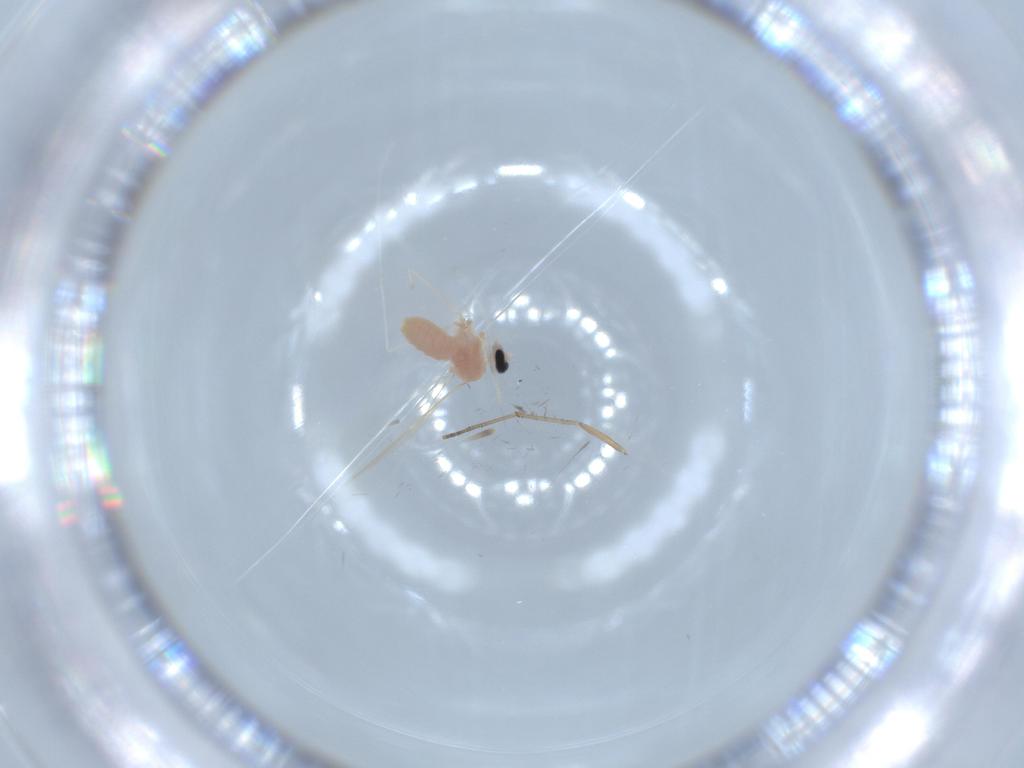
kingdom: Animalia
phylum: Arthropoda
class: Insecta
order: Diptera
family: Cecidomyiidae
